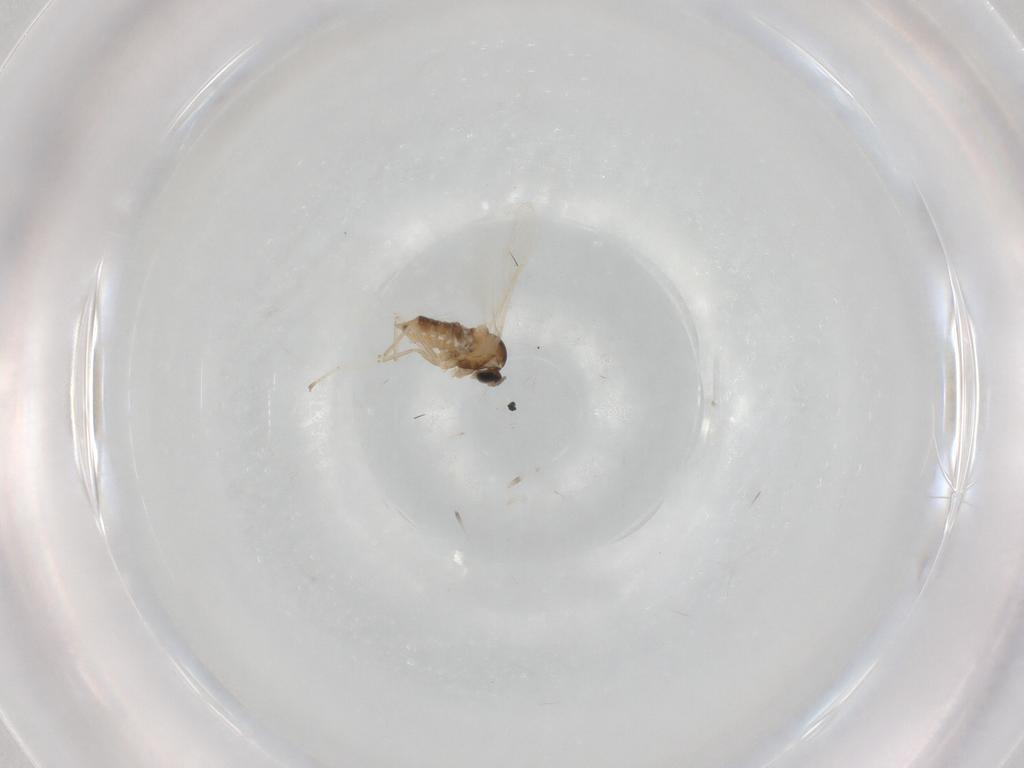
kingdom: Animalia
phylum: Arthropoda
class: Insecta
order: Diptera
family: Cecidomyiidae
